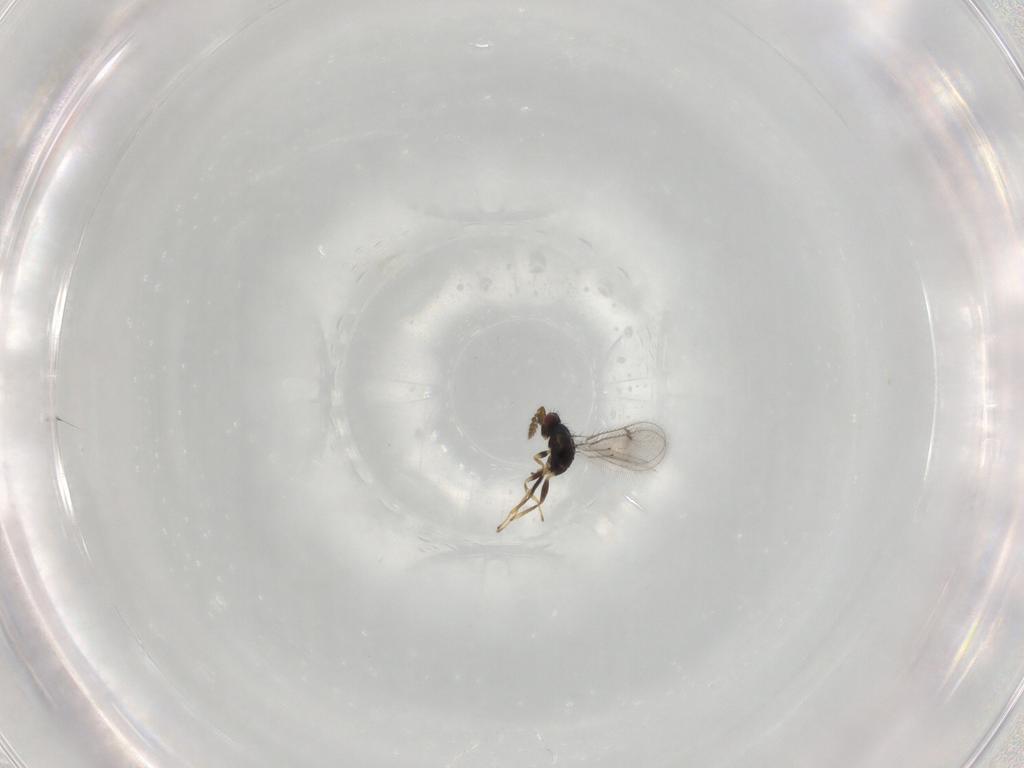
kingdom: Animalia
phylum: Arthropoda
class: Insecta
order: Hymenoptera
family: Eulophidae
